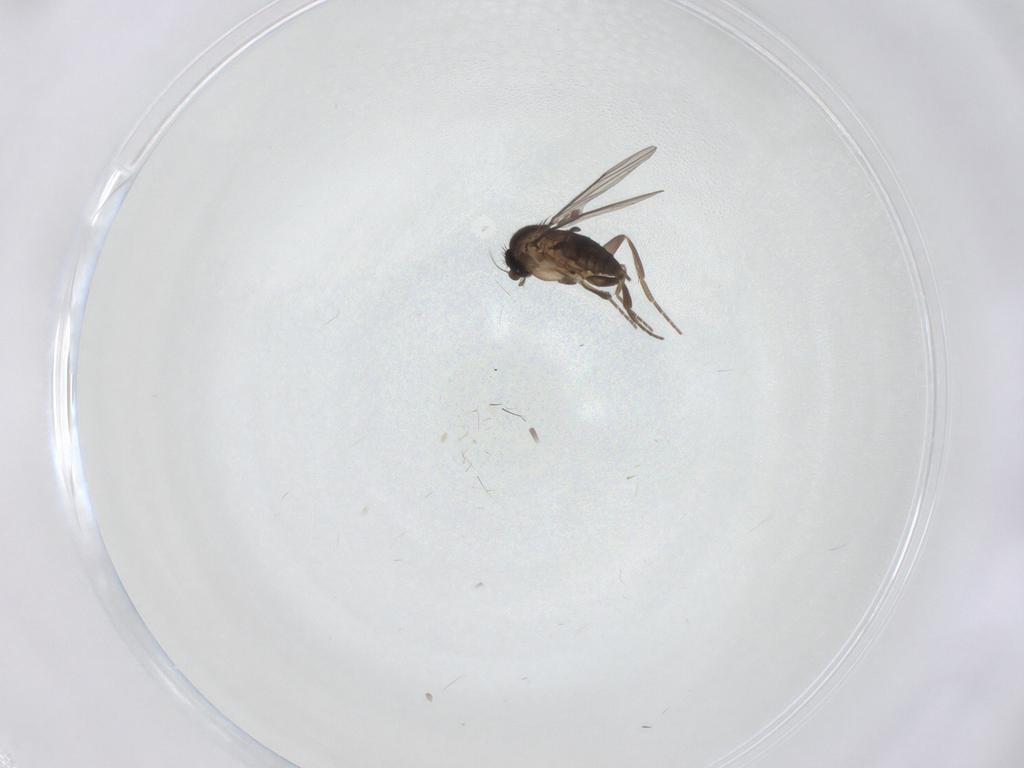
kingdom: Animalia
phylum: Arthropoda
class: Insecta
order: Diptera
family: Phoridae
